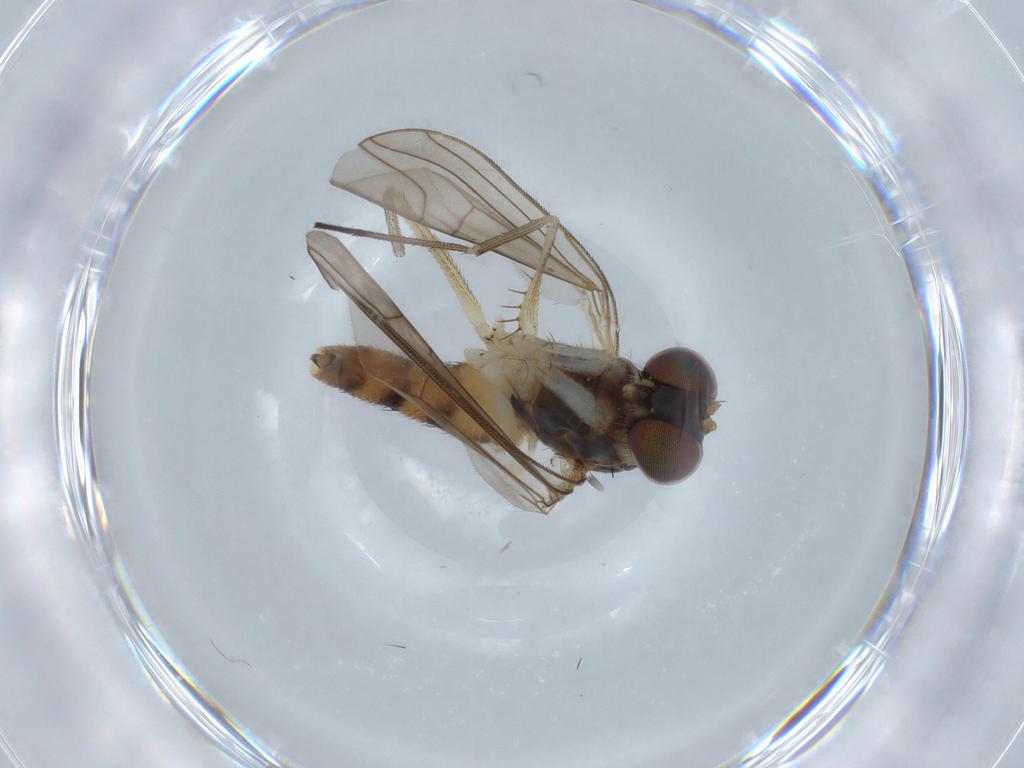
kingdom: Animalia
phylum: Arthropoda
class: Insecta
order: Diptera
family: Dolichopodidae
